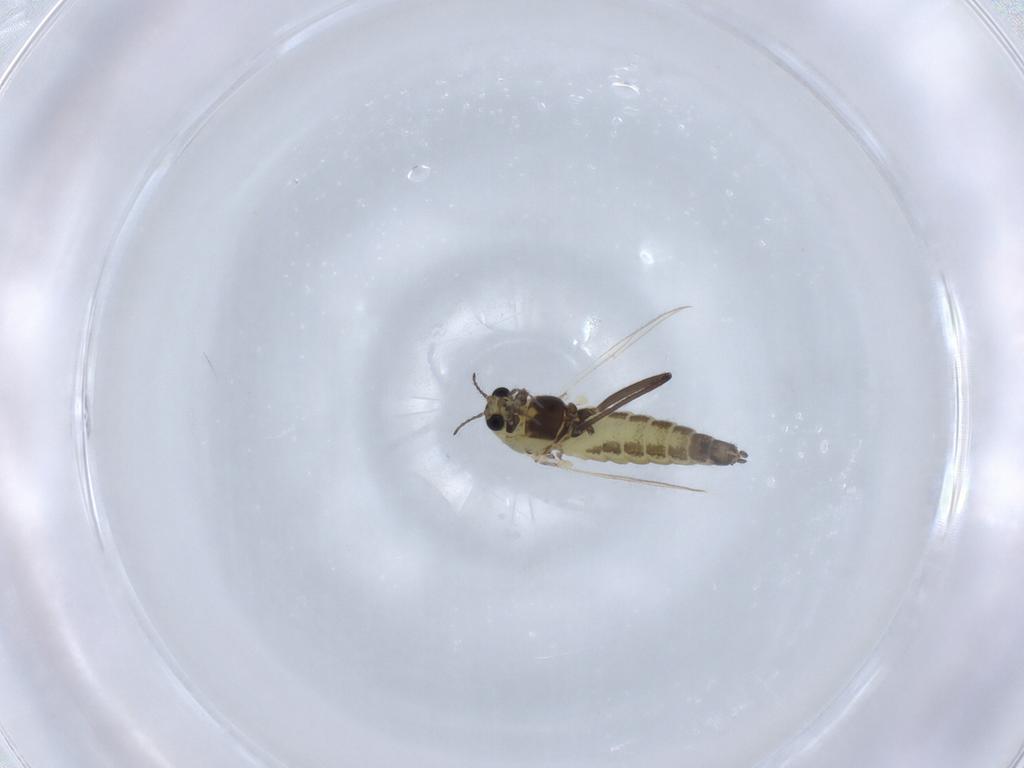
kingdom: Animalia
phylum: Arthropoda
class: Insecta
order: Diptera
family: Chironomidae
